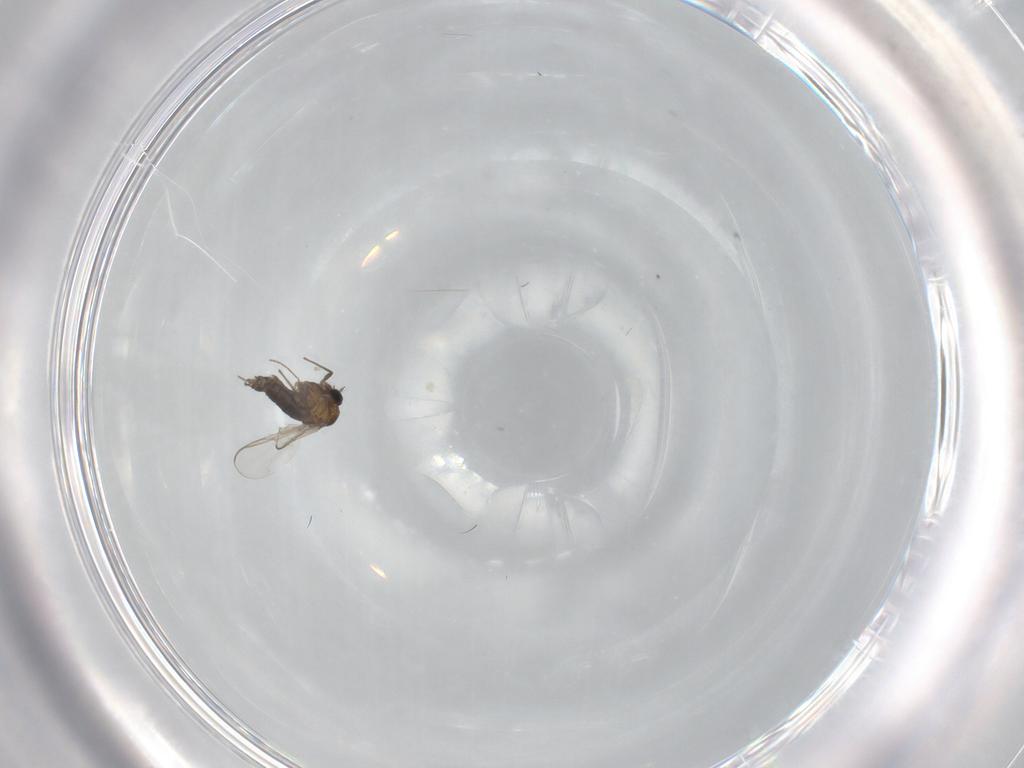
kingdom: Animalia
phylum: Arthropoda
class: Insecta
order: Diptera
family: Chironomidae
